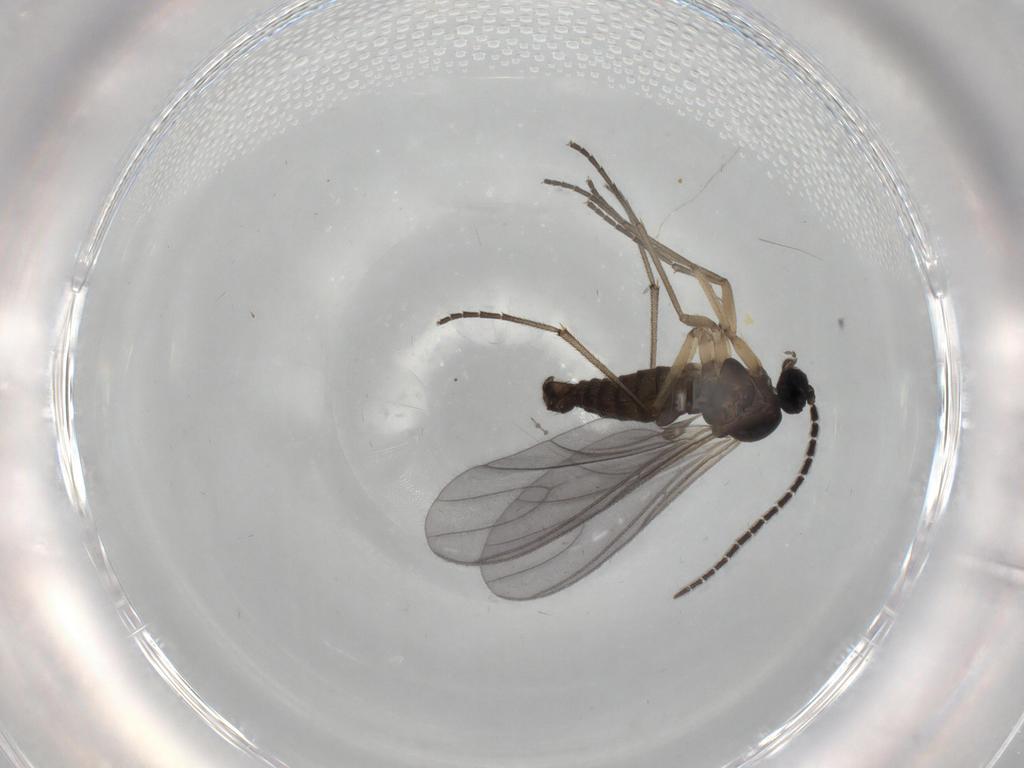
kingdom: Animalia
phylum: Arthropoda
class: Insecta
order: Diptera
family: Sciaridae
